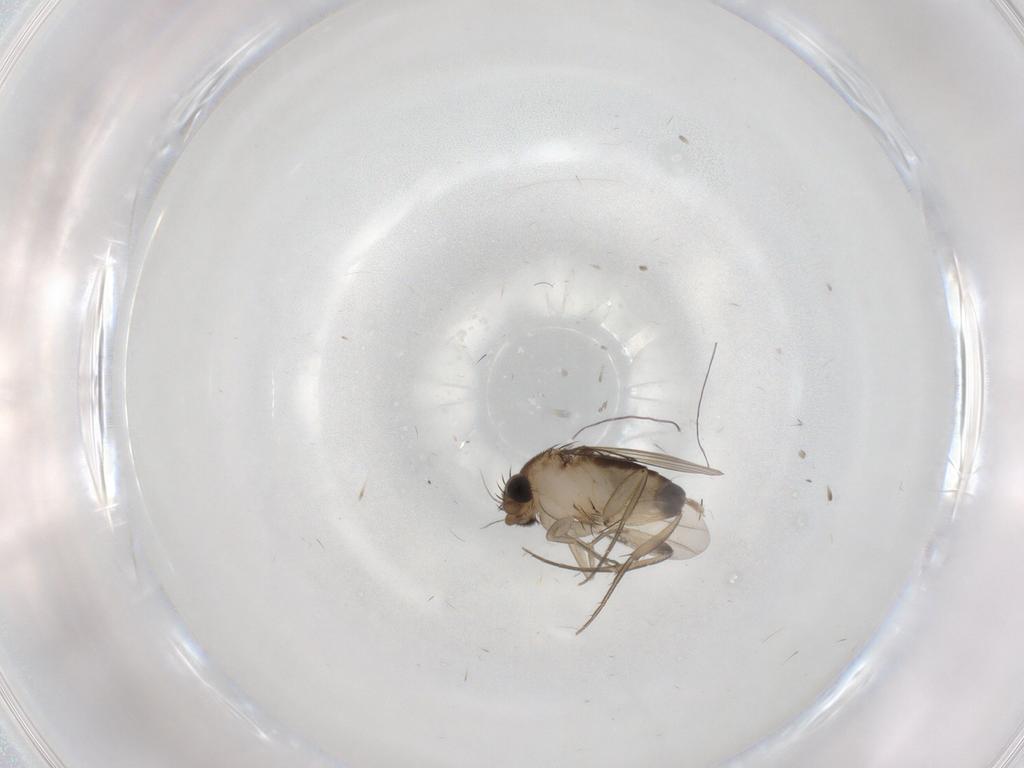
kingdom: Animalia
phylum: Arthropoda
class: Insecta
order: Diptera
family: Phoridae
